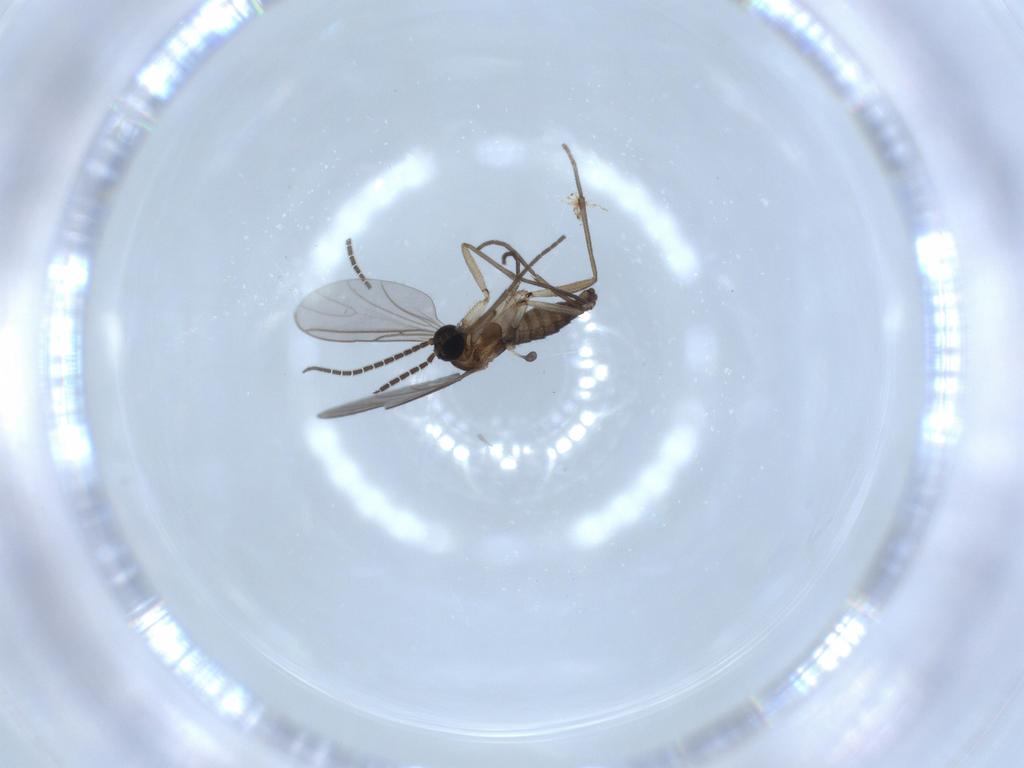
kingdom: Animalia
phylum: Arthropoda
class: Insecta
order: Diptera
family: Sciaridae
